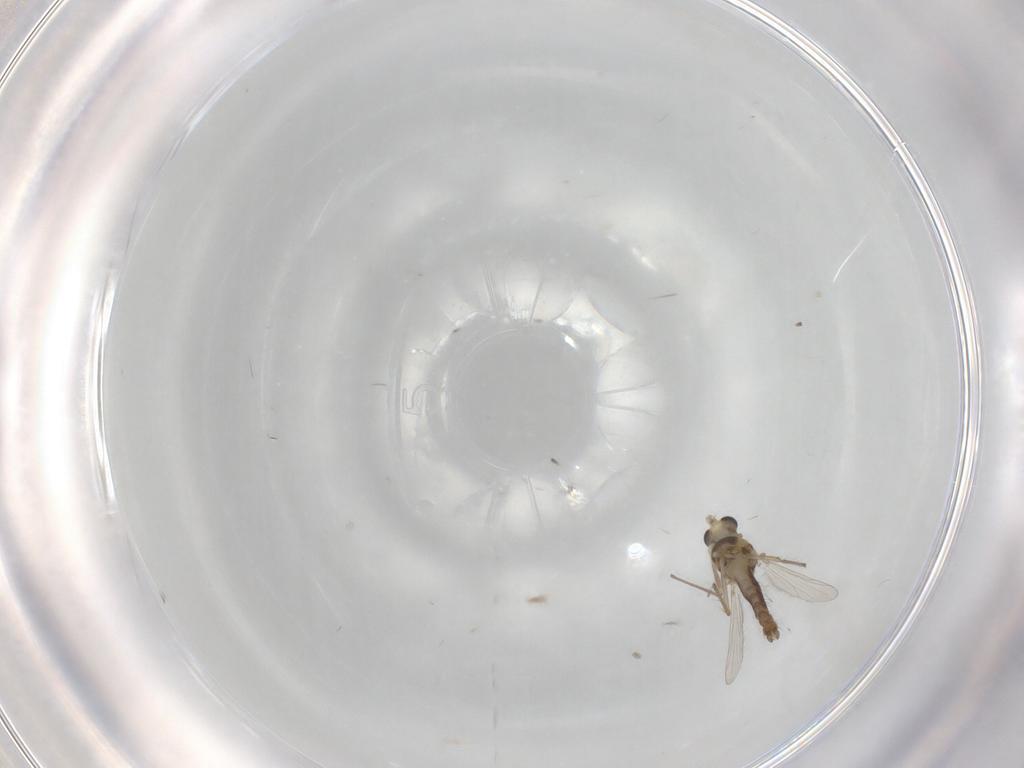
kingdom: Animalia
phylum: Arthropoda
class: Insecta
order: Diptera
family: Chironomidae
